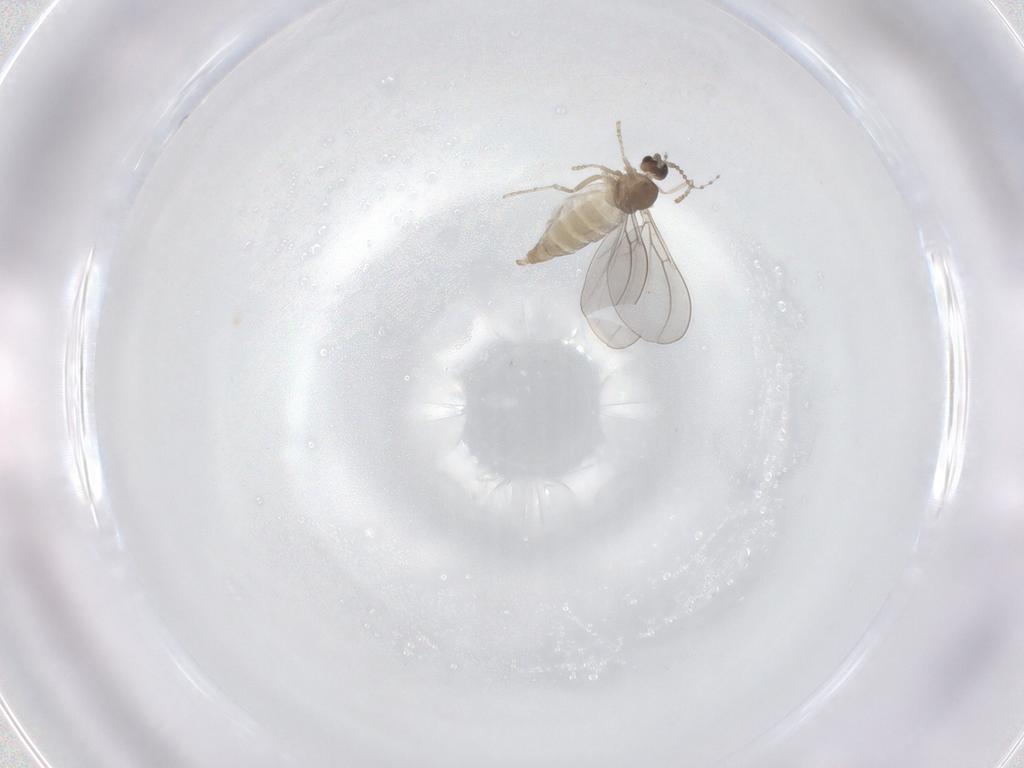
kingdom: Animalia
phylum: Arthropoda
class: Insecta
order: Diptera
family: Cecidomyiidae
